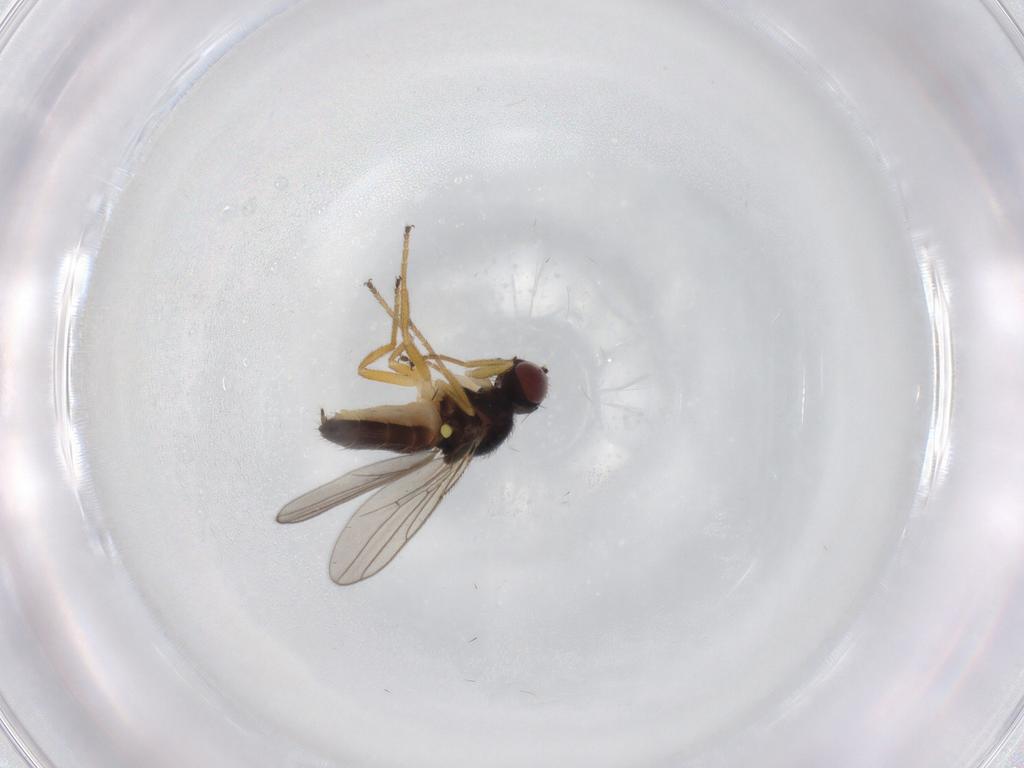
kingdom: Animalia
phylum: Arthropoda
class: Insecta
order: Diptera
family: Chloropidae
